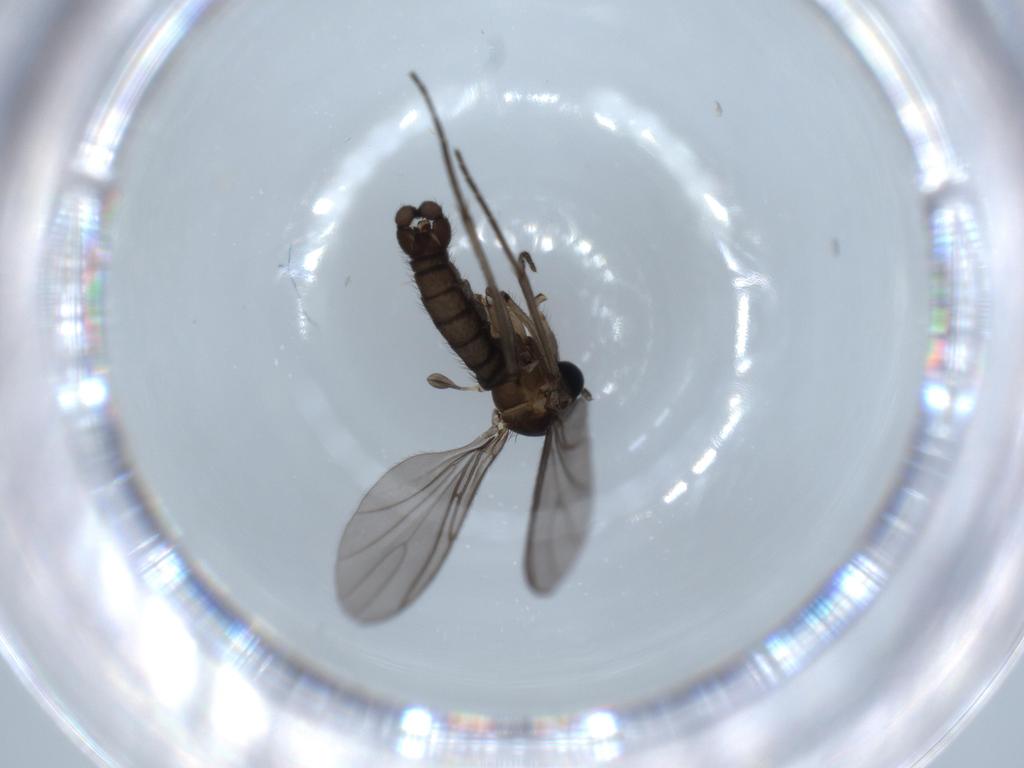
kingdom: Animalia
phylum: Arthropoda
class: Insecta
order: Diptera
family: Sciaridae
